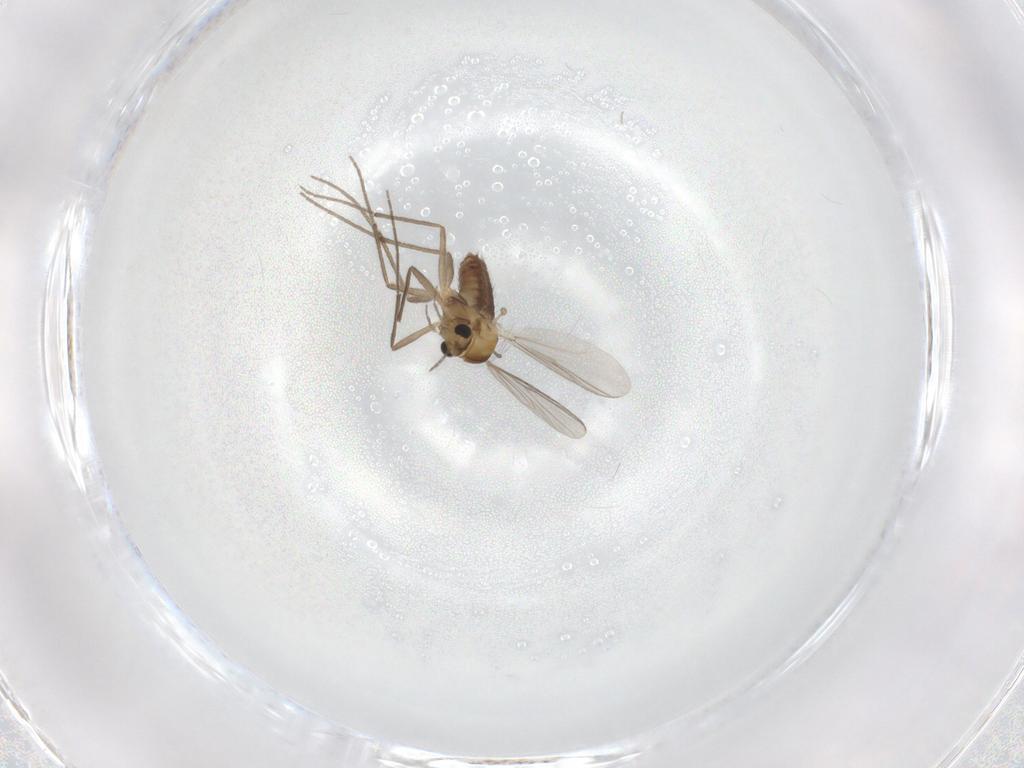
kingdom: Animalia
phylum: Arthropoda
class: Insecta
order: Diptera
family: Chironomidae
